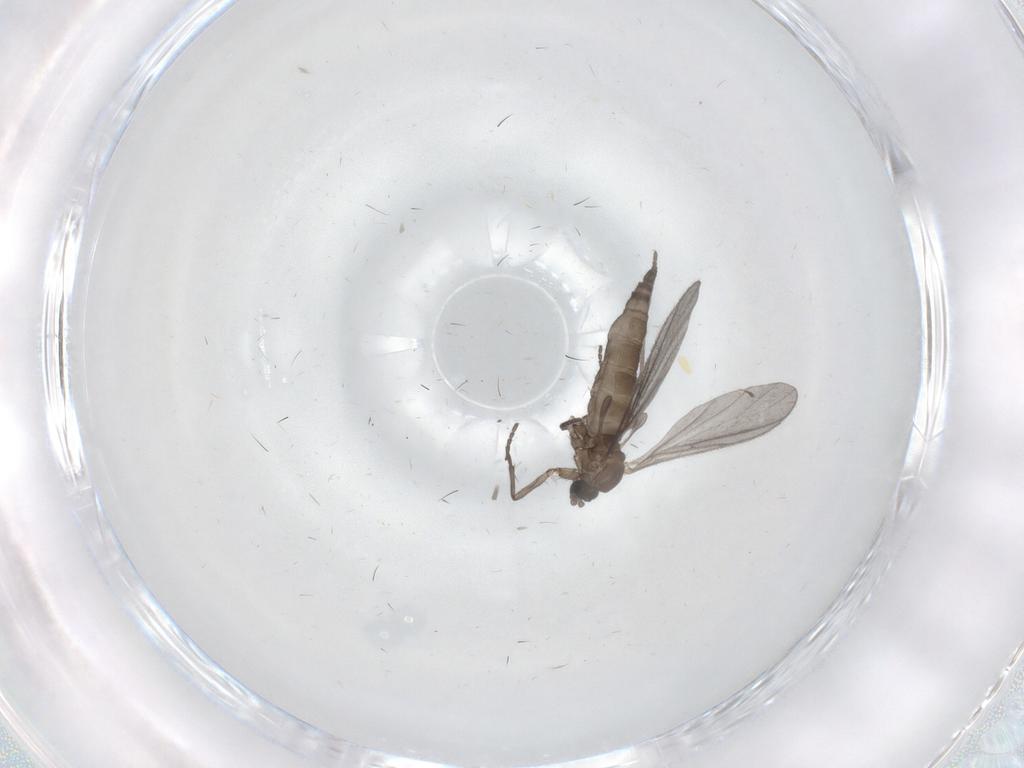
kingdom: Animalia
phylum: Arthropoda
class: Insecta
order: Diptera
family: Sciaridae
